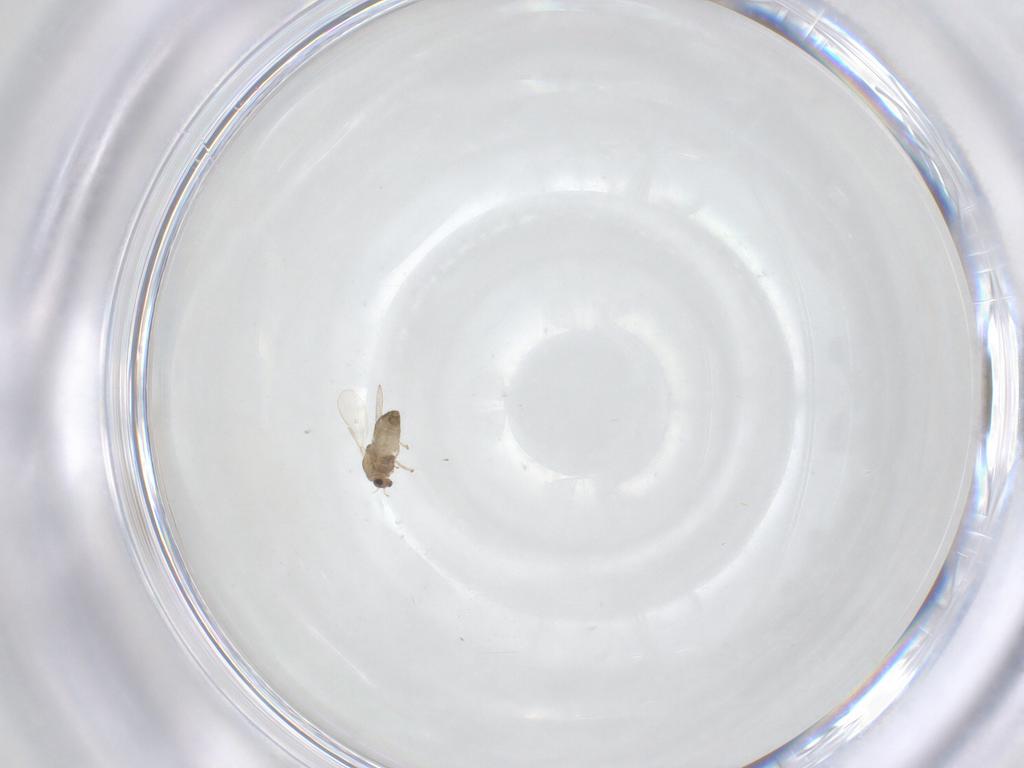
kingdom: Animalia
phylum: Arthropoda
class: Insecta
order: Diptera
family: Chironomidae
